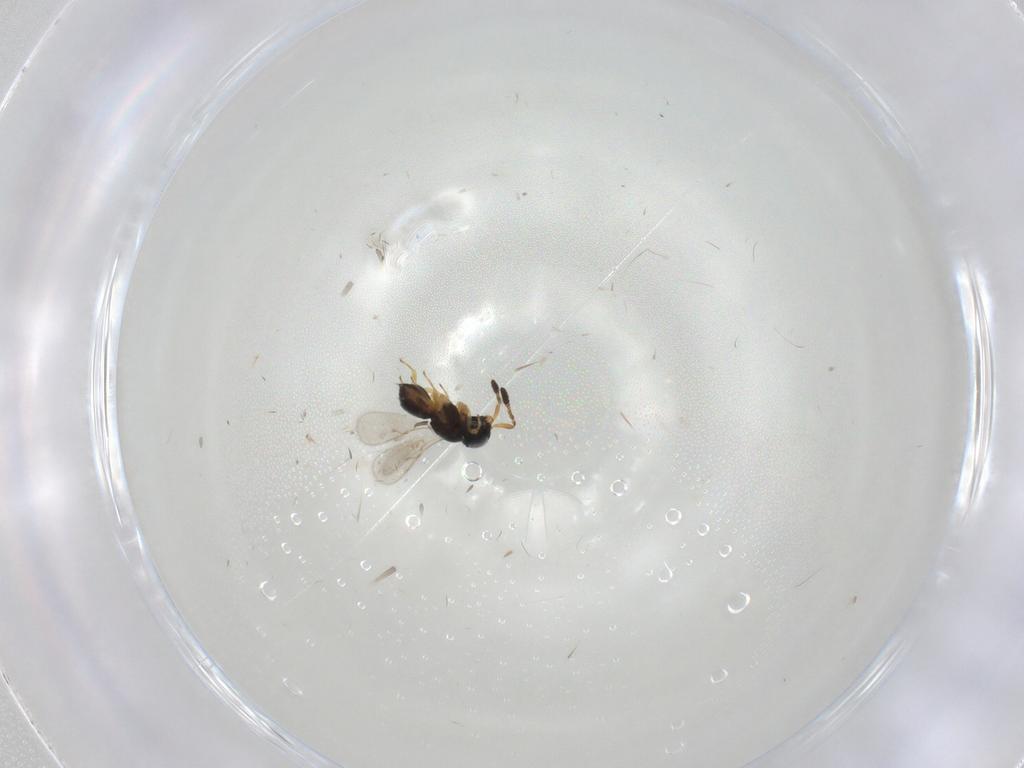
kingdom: Animalia
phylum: Arthropoda
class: Insecta
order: Hymenoptera
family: Scelionidae
